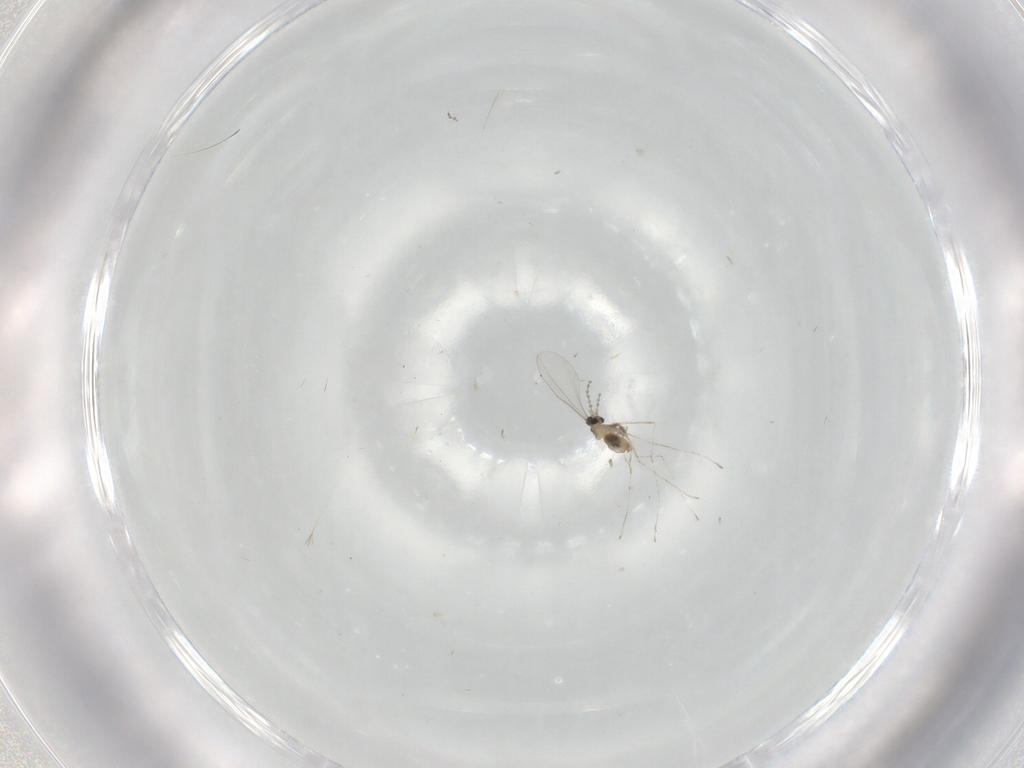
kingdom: Animalia
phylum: Arthropoda
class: Insecta
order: Diptera
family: Cecidomyiidae
